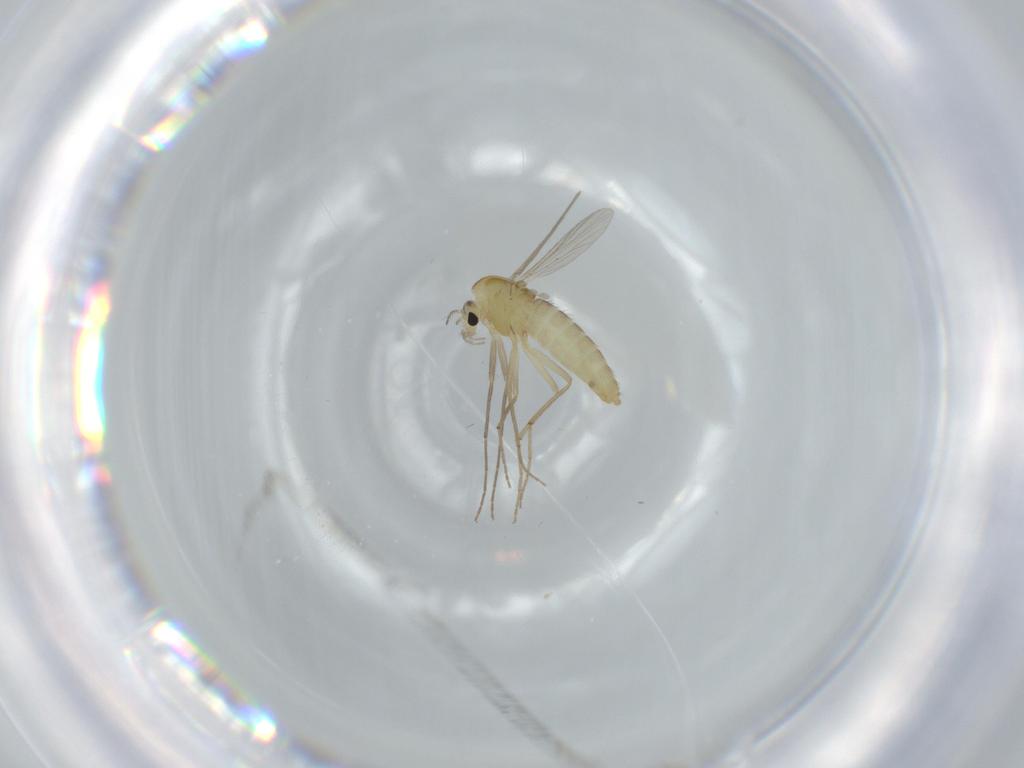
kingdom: Animalia
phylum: Arthropoda
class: Insecta
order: Diptera
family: Chironomidae
